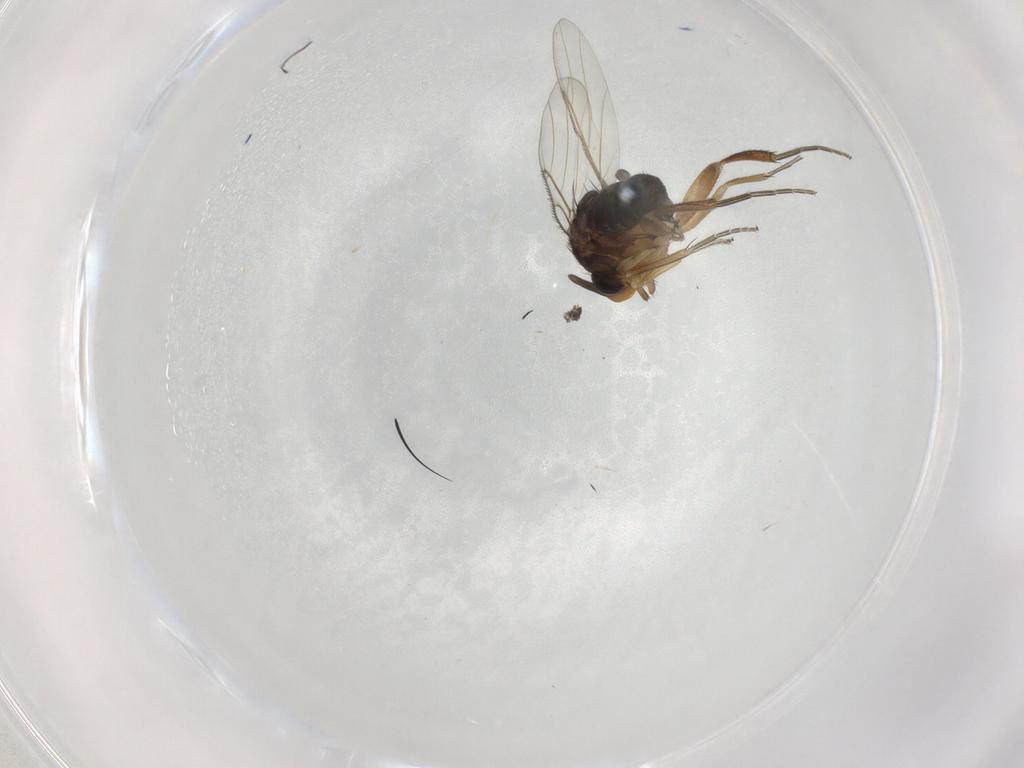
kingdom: Animalia
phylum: Arthropoda
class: Insecta
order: Diptera
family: Phoridae
